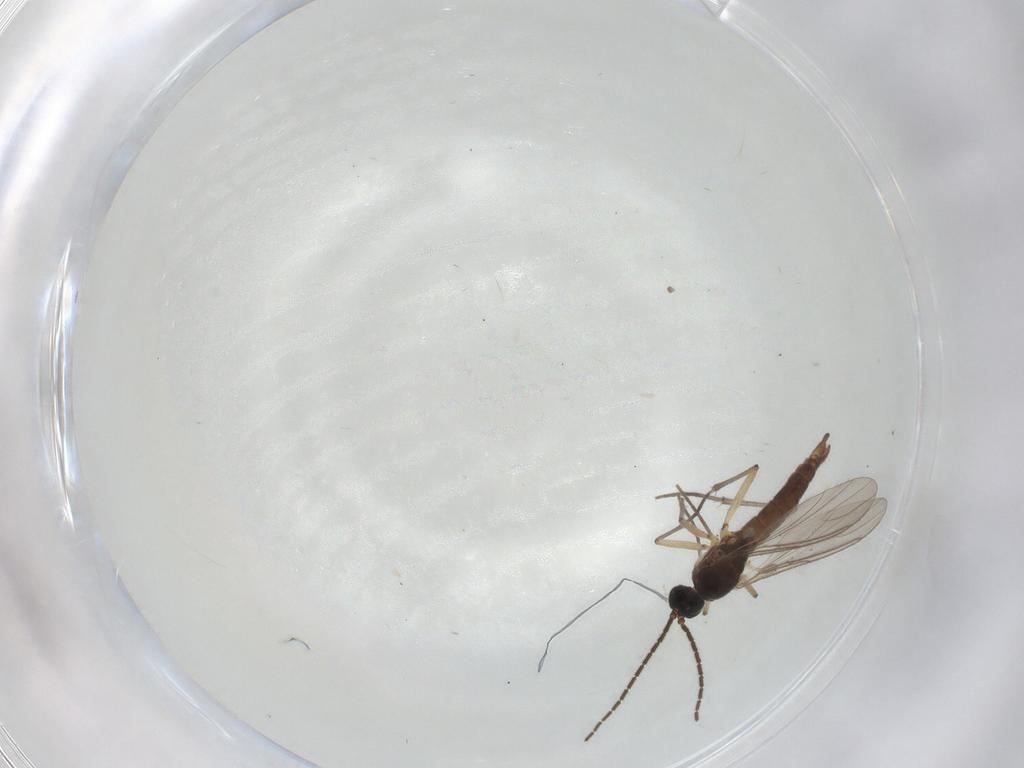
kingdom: Animalia
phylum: Arthropoda
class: Insecta
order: Diptera
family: Sciaridae
